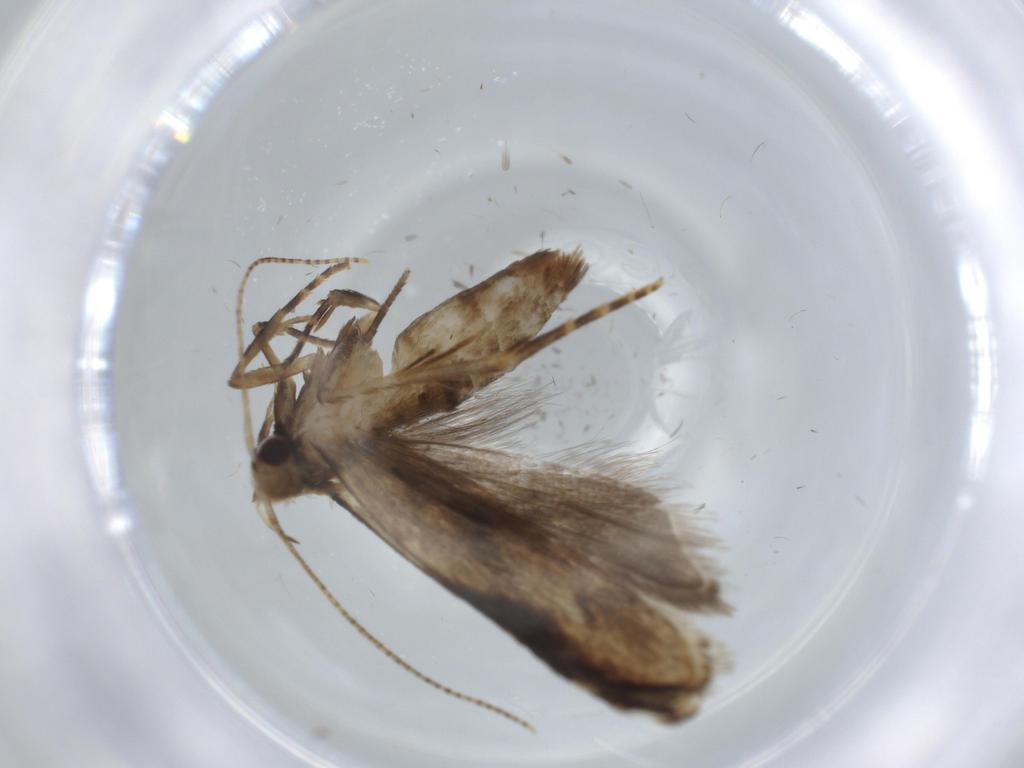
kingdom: Animalia
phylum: Arthropoda
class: Insecta
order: Lepidoptera
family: Gracillariidae
